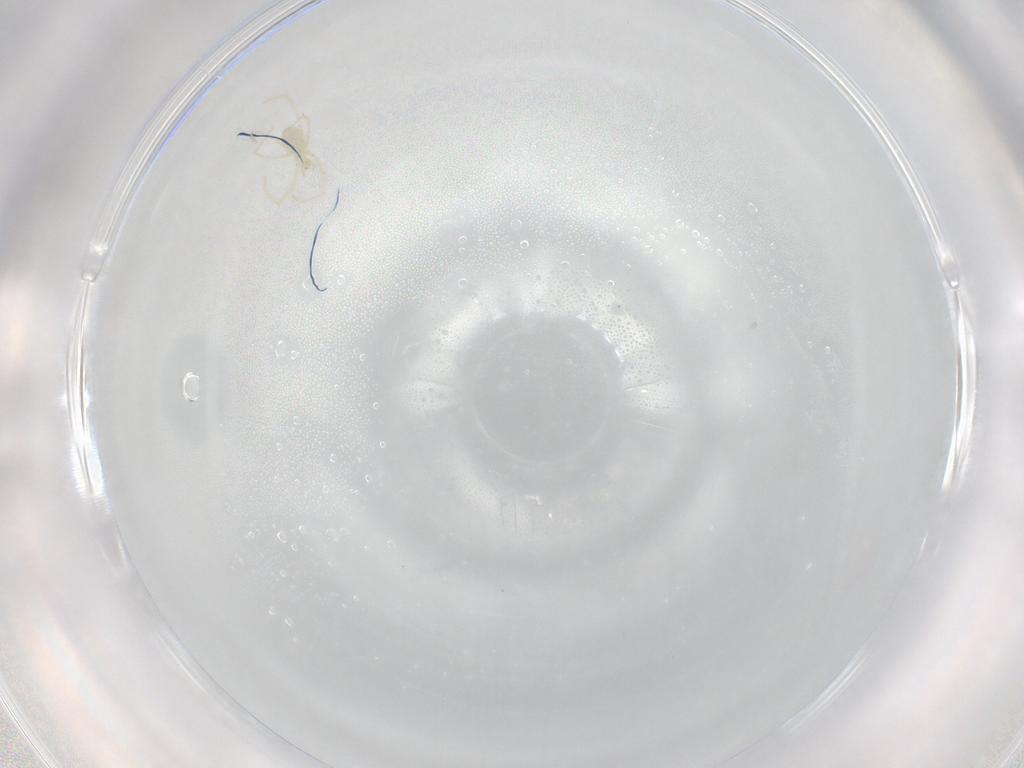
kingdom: Animalia
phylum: Arthropoda
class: Arachnida
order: Trombidiformes
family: Erythraeidae
